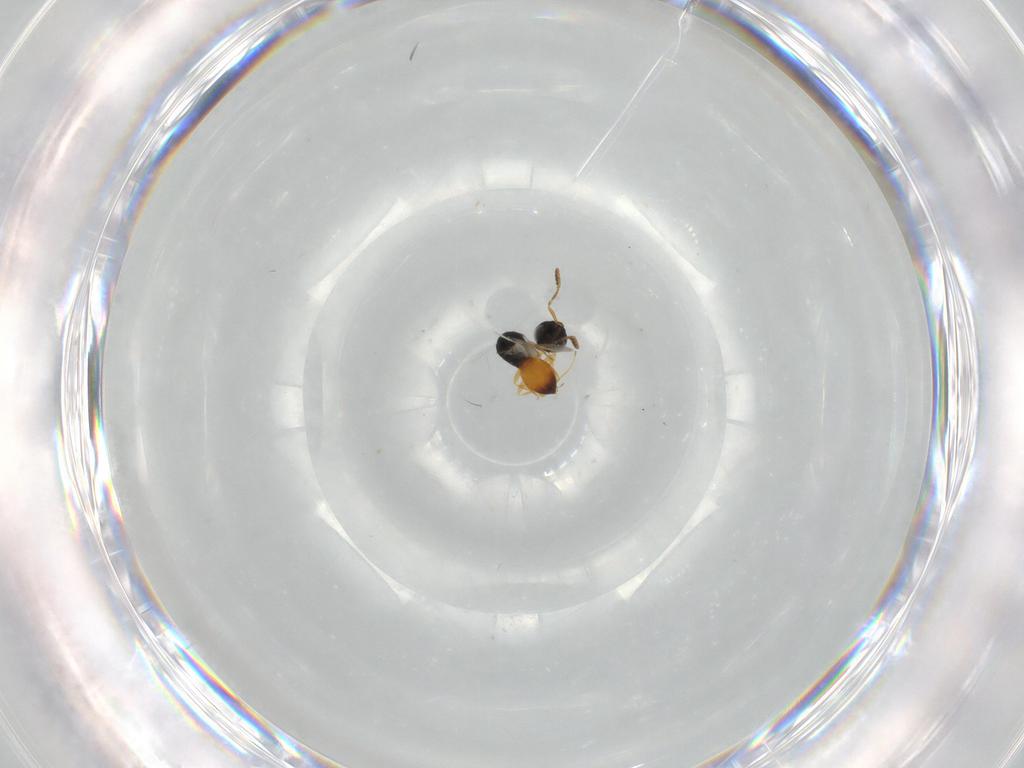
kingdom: Animalia
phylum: Arthropoda
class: Insecta
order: Hymenoptera
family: Scelionidae
